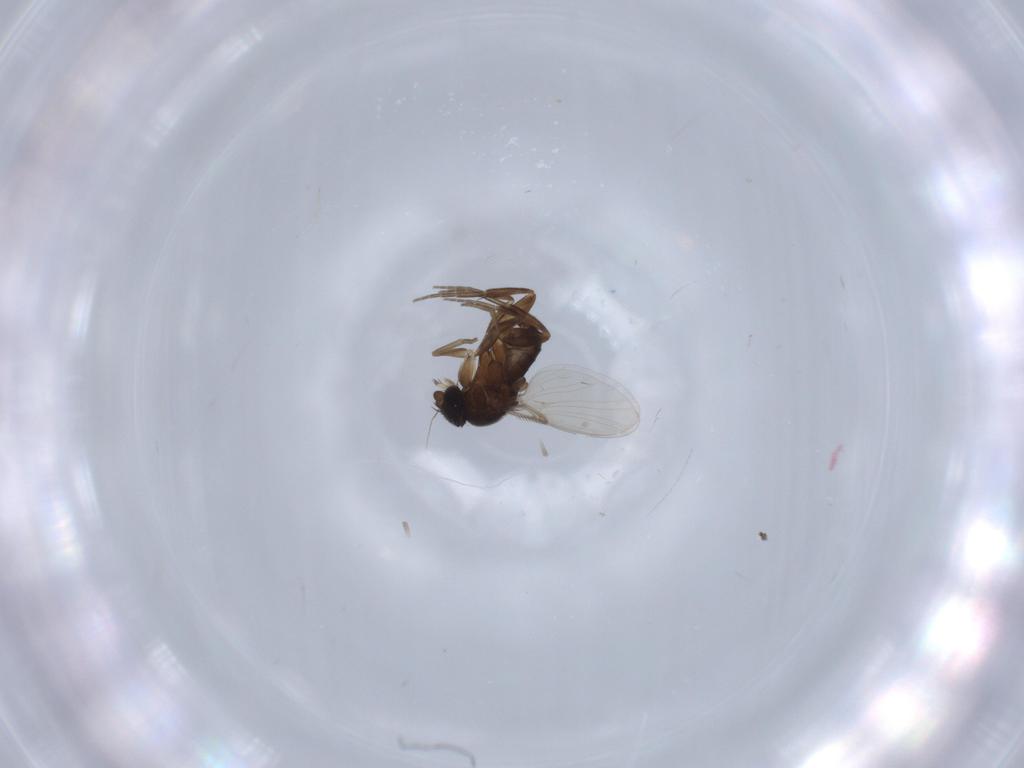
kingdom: Animalia
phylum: Arthropoda
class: Insecta
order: Diptera
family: Phoridae
